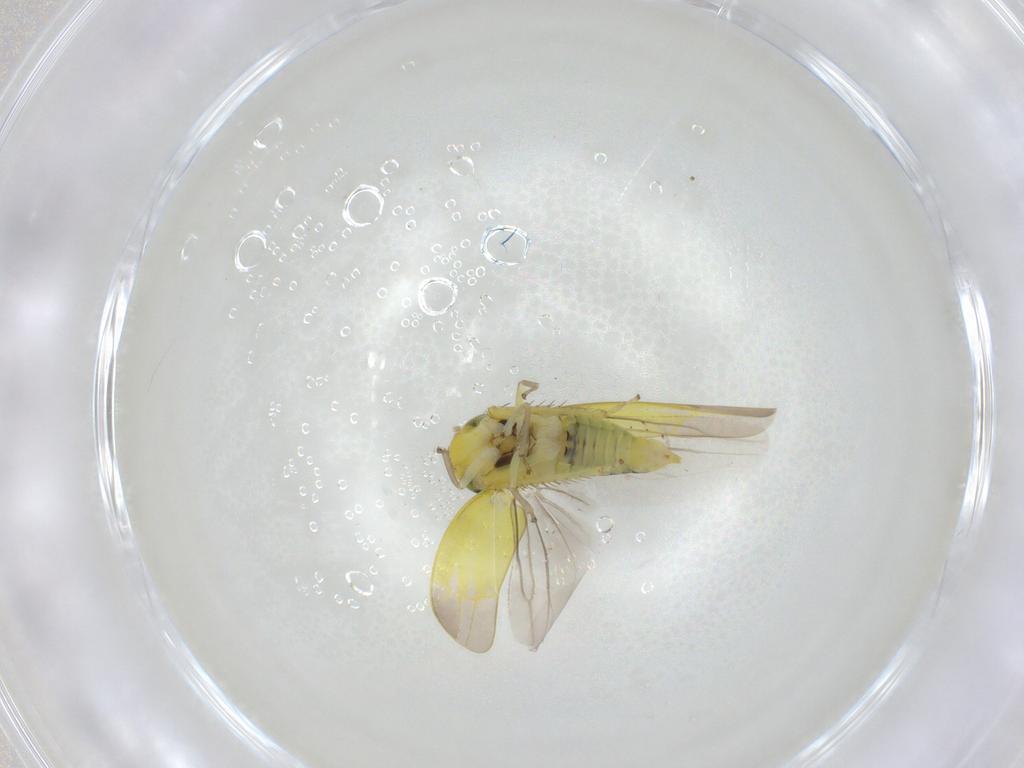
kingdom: Animalia
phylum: Arthropoda
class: Insecta
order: Hemiptera
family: Cicadellidae
